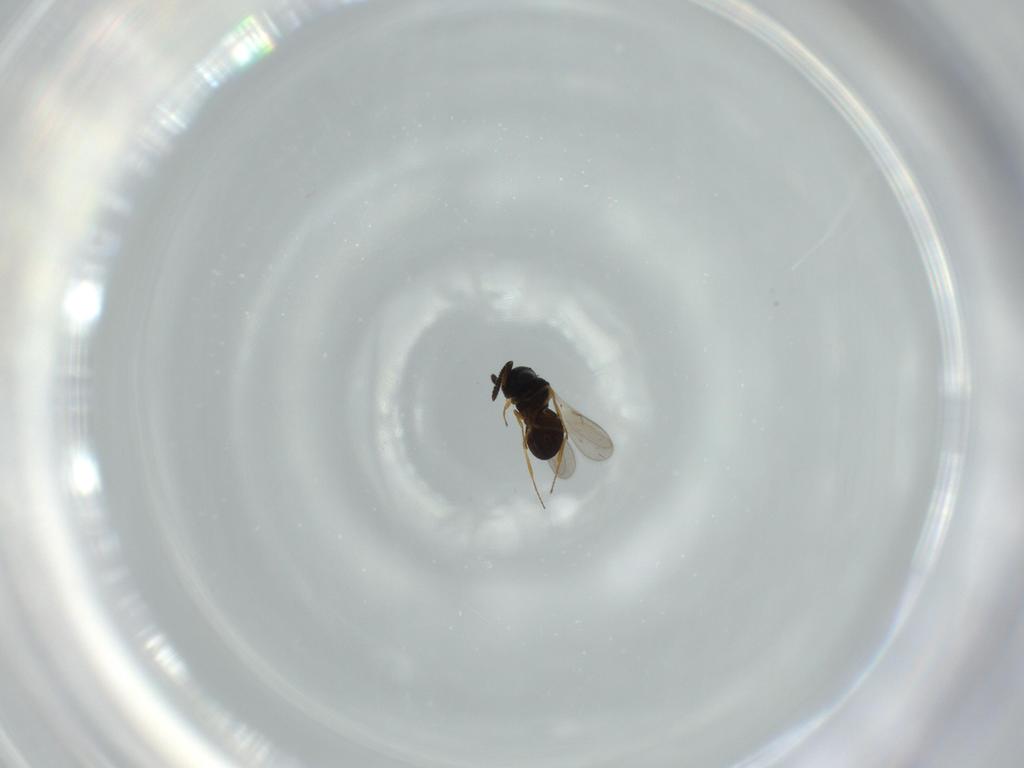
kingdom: Animalia
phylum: Arthropoda
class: Insecta
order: Hymenoptera
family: Scelionidae
